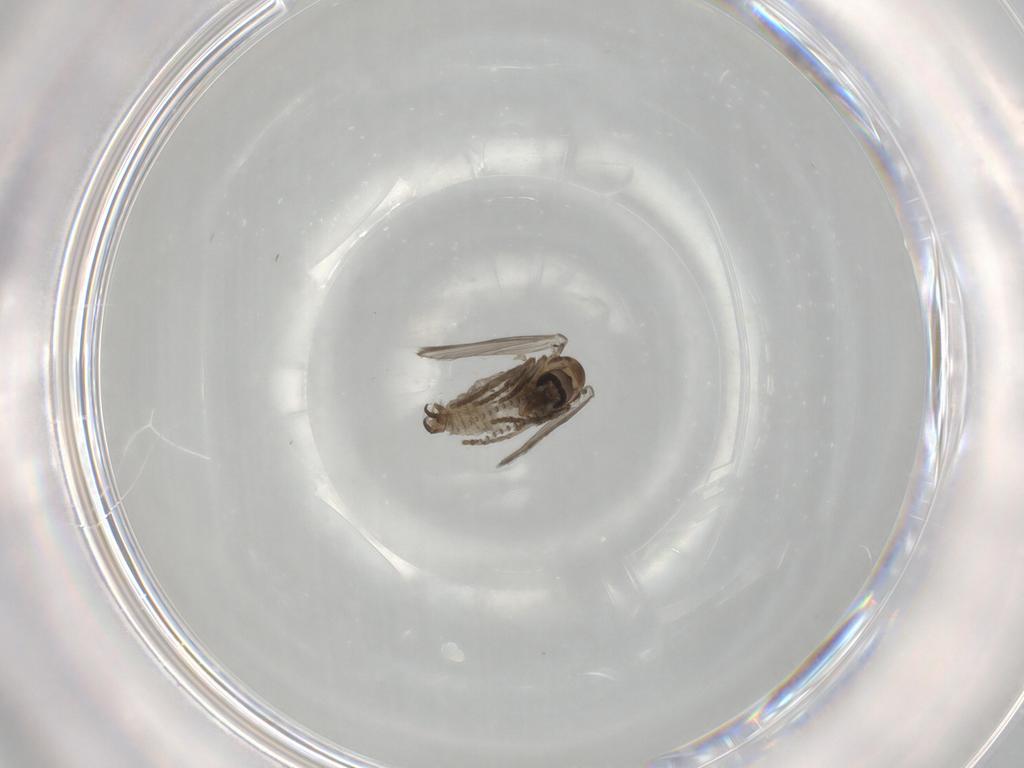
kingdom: Animalia
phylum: Arthropoda
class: Insecta
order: Diptera
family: Psychodidae
